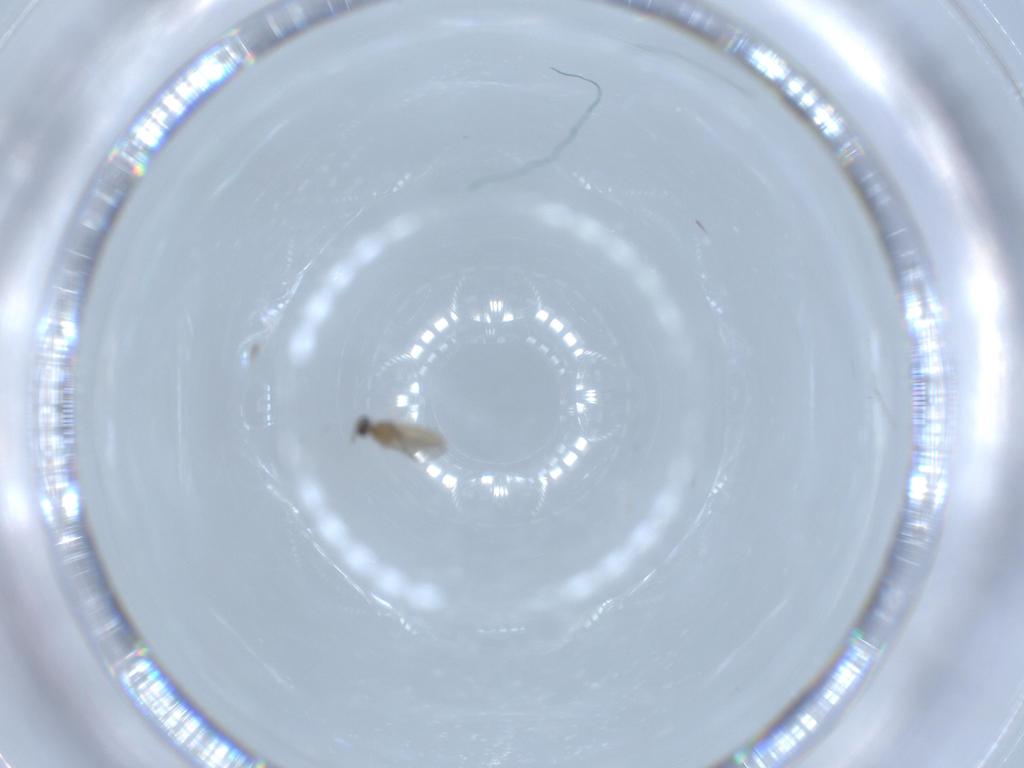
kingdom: Animalia
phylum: Arthropoda
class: Insecta
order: Diptera
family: Cecidomyiidae
